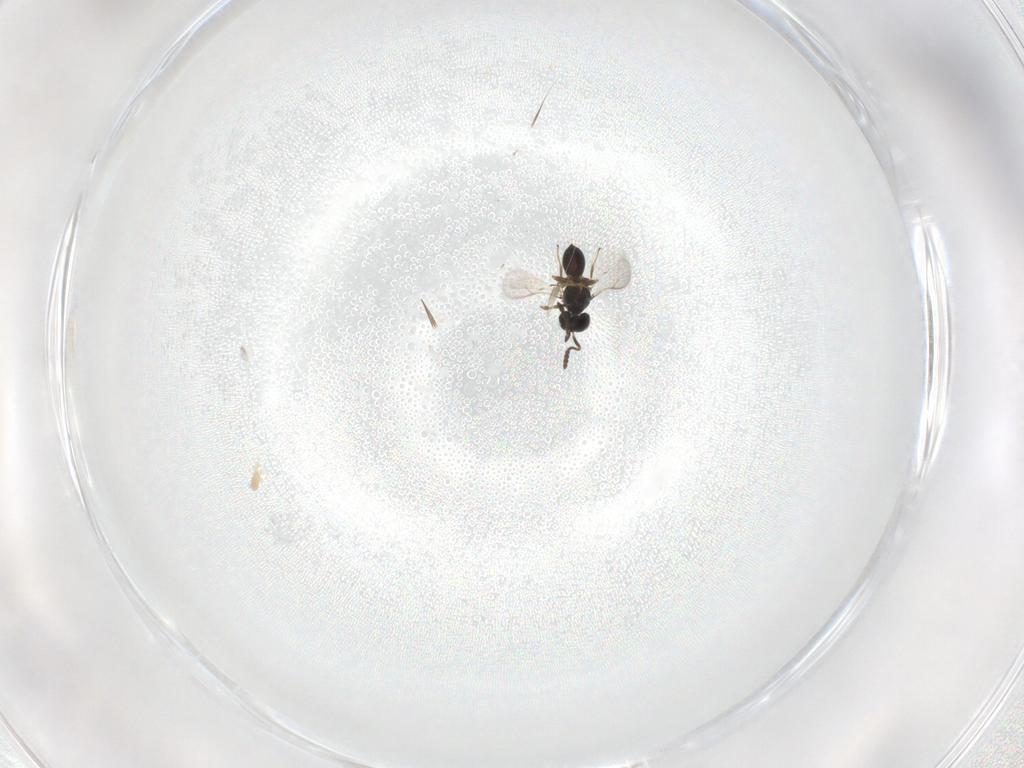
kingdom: Animalia
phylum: Arthropoda
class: Insecta
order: Hymenoptera
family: Scelionidae
